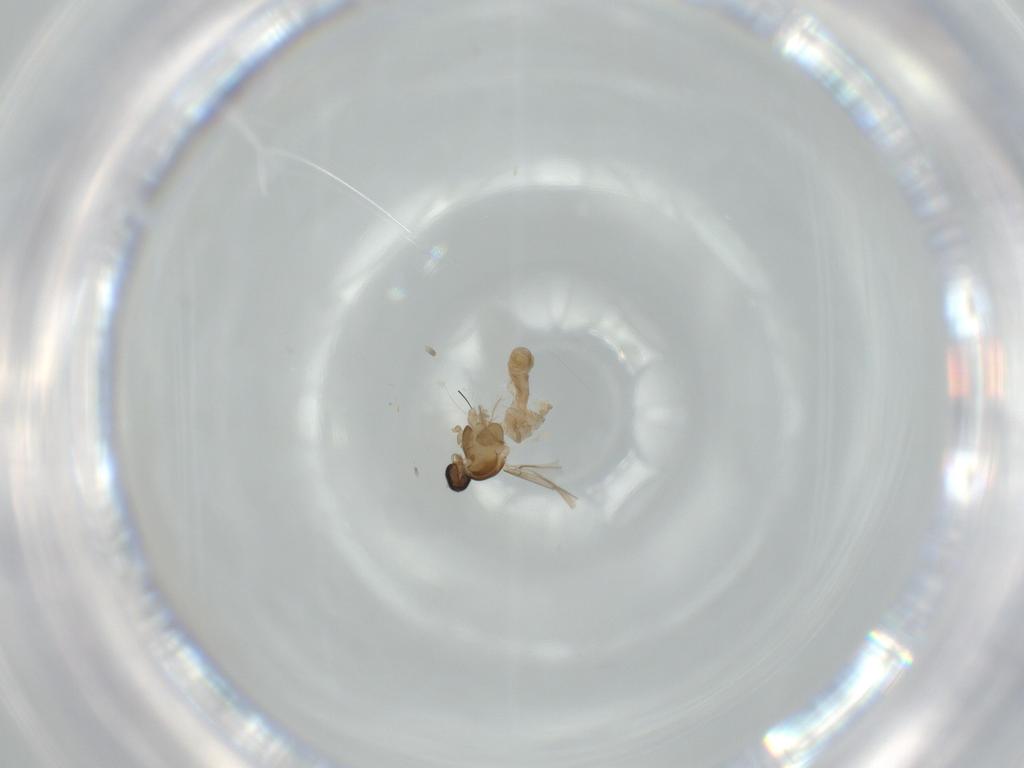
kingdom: Animalia
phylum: Arthropoda
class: Insecta
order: Diptera
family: Cecidomyiidae
